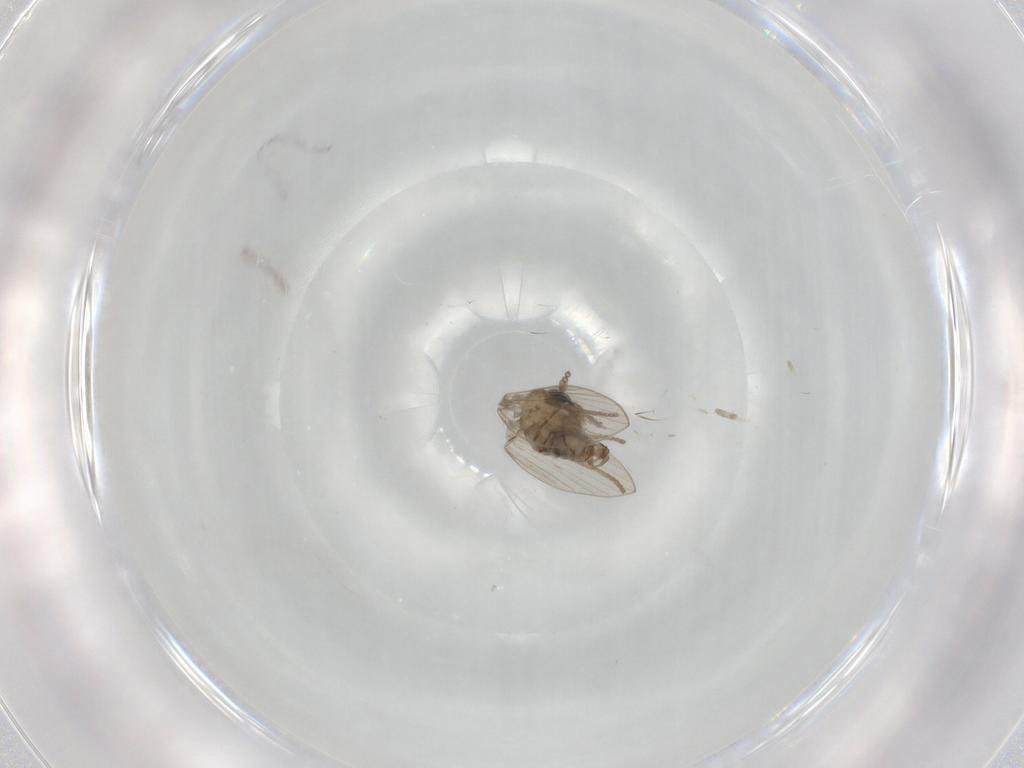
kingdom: Animalia
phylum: Arthropoda
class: Insecta
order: Diptera
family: Psychodidae
